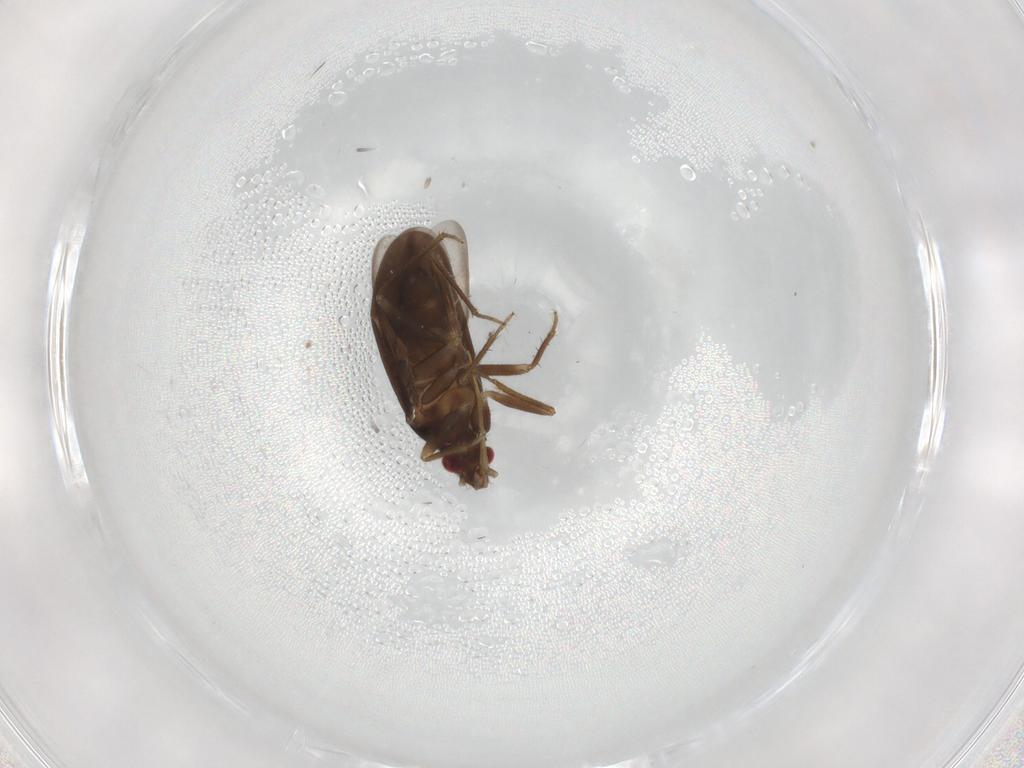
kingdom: Animalia
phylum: Arthropoda
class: Insecta
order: Hemiptera
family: Ceratocombidae
